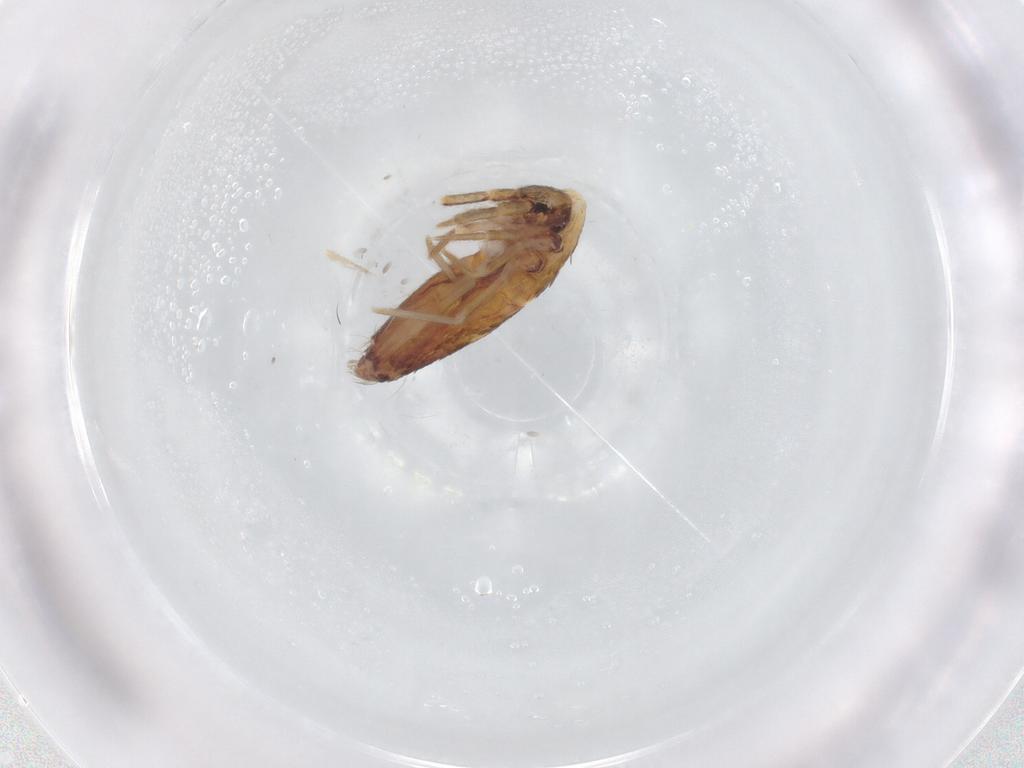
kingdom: Animalia
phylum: Arthropoda
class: Collembola
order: Entomobryomorpha
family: Entomobryidae
